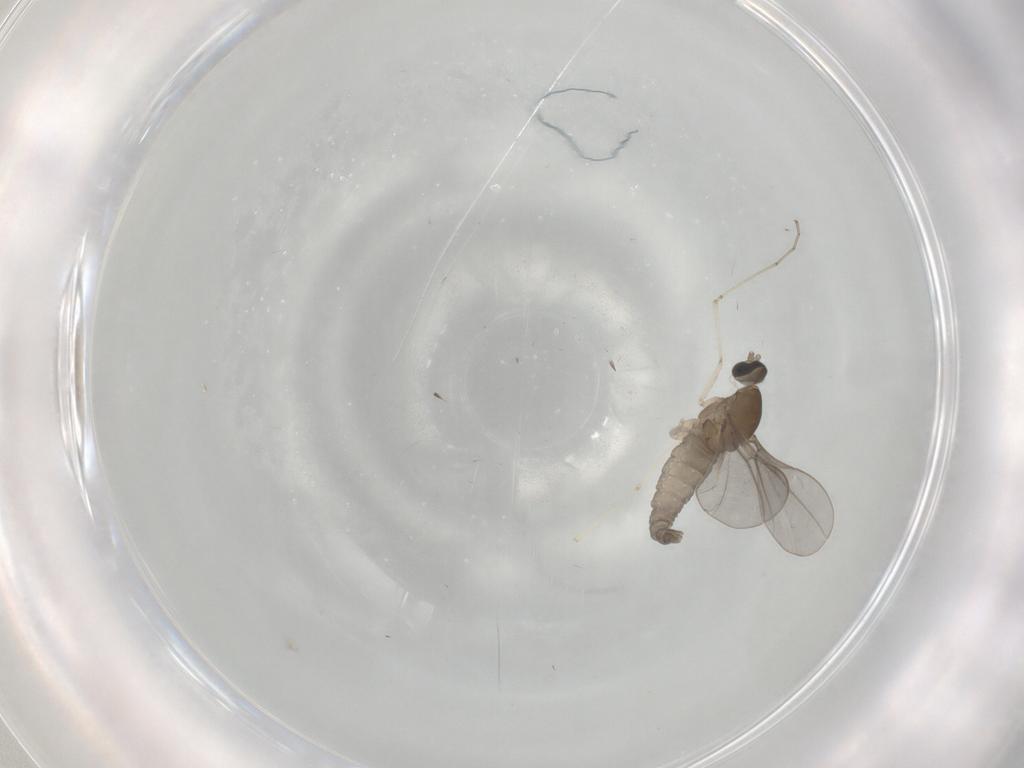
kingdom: Animalia
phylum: Arthropoda
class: Insecta
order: Diptera
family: Cecidomyiidae
